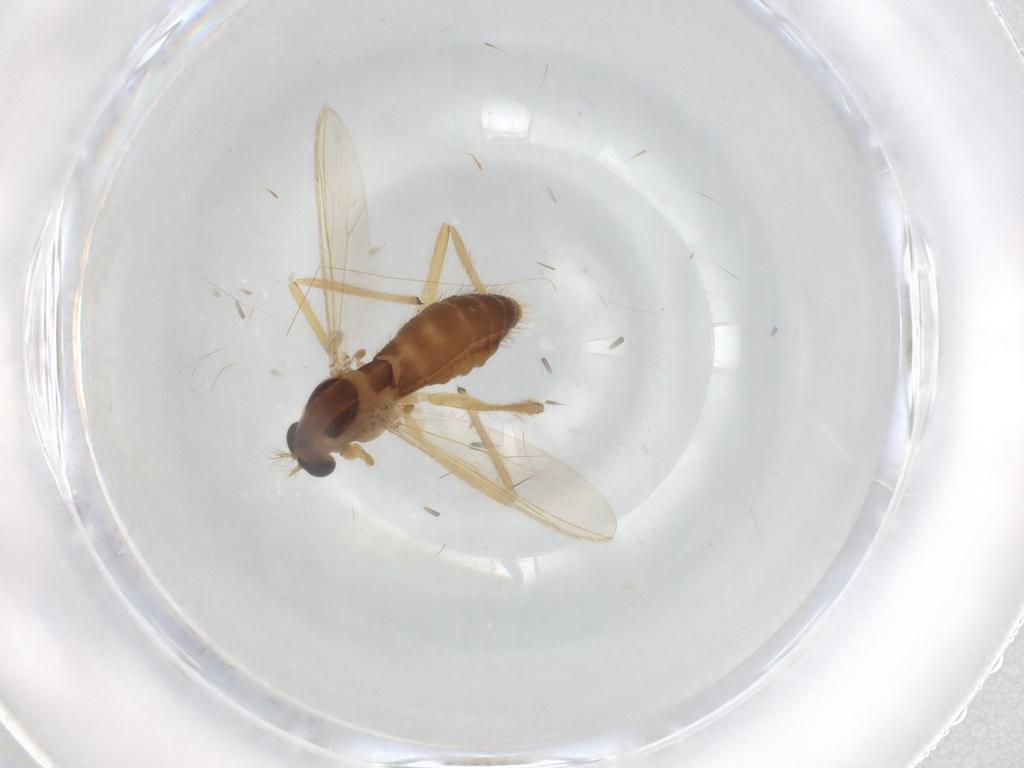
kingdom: Animalia
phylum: Arthropoda
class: Insecta
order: Diptera
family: Chironomidae
